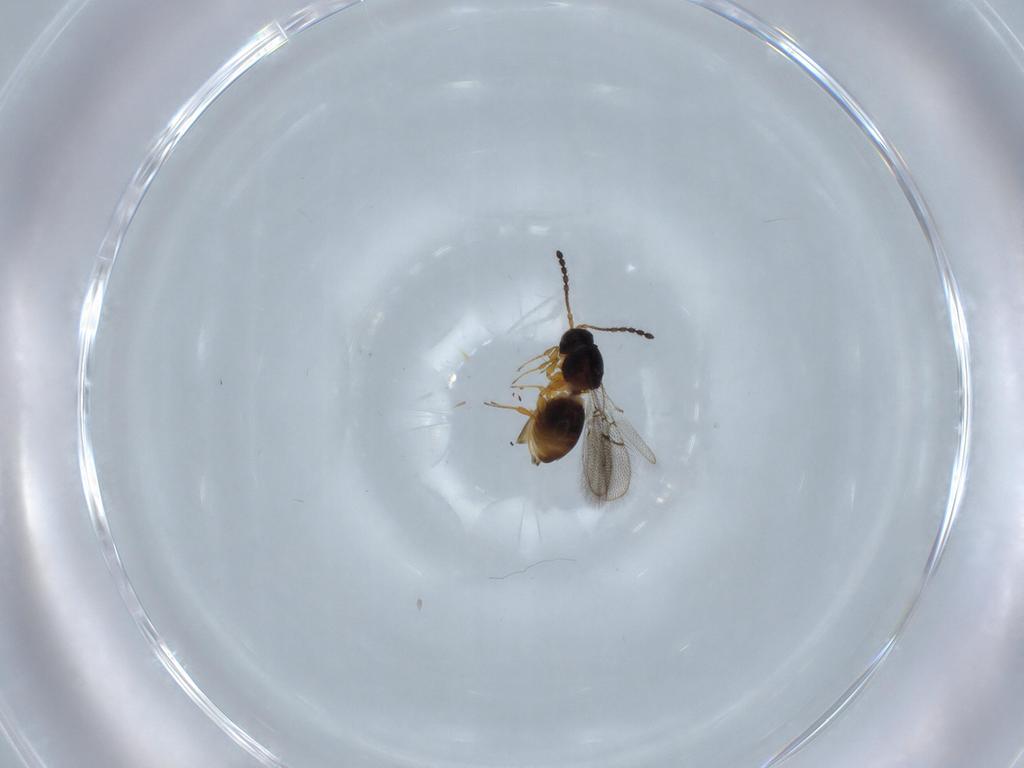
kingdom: Animalia
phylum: Arthropoda
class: Insecta
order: Hymenoptera
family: Figitidae
